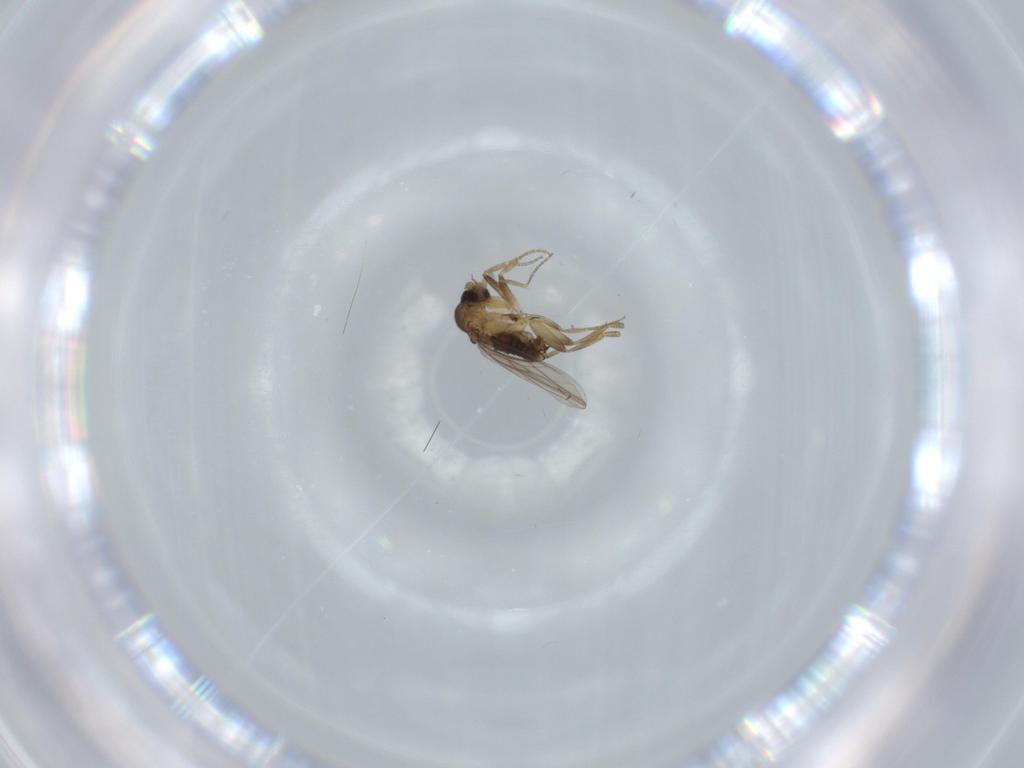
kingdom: Animalia
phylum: Arthropoda
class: Insecta
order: Diptera
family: Phoridae
